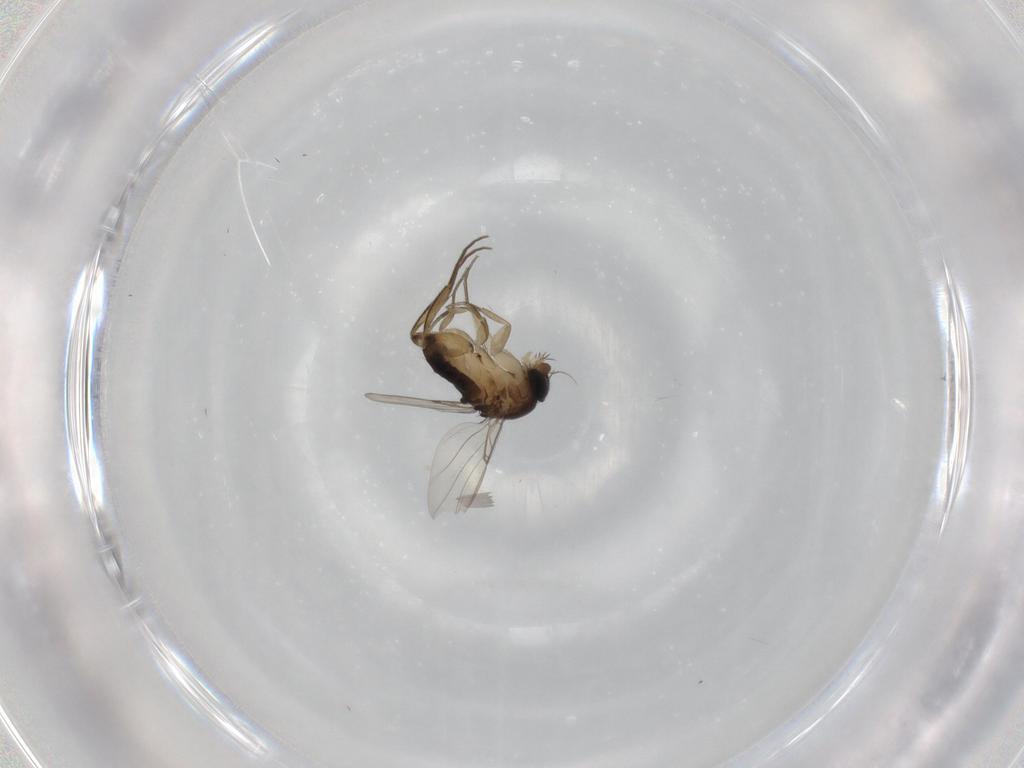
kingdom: Animalia
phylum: Arthropoda
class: Insecta
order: Diptera
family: Phoridae
